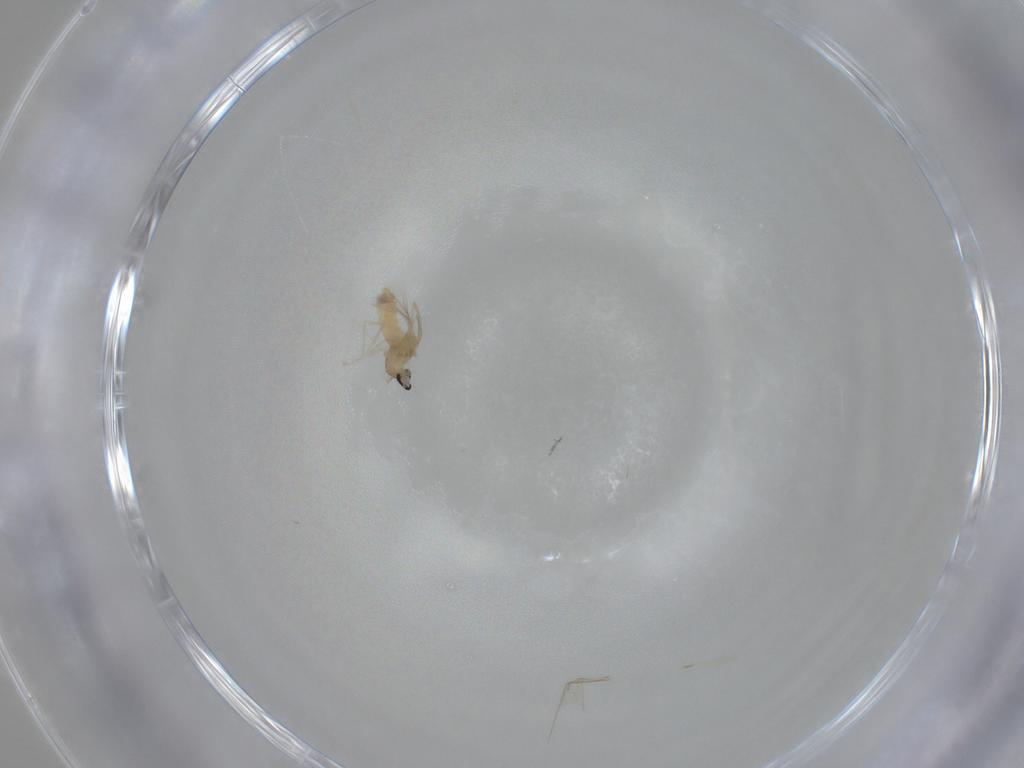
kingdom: Animalia
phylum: Arthropoda
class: Insecta
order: Diptera
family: Cecidomyiidae
